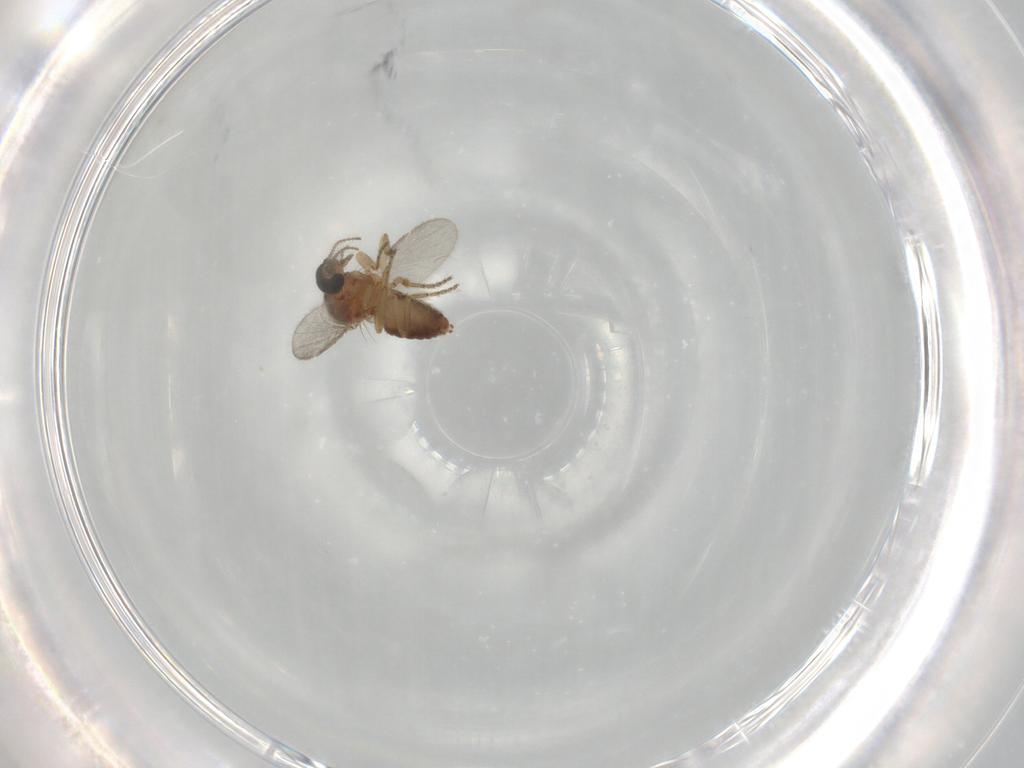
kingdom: Animalia
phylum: Arthropoda
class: Insecta
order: Diptera
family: Ceratopogonidae
